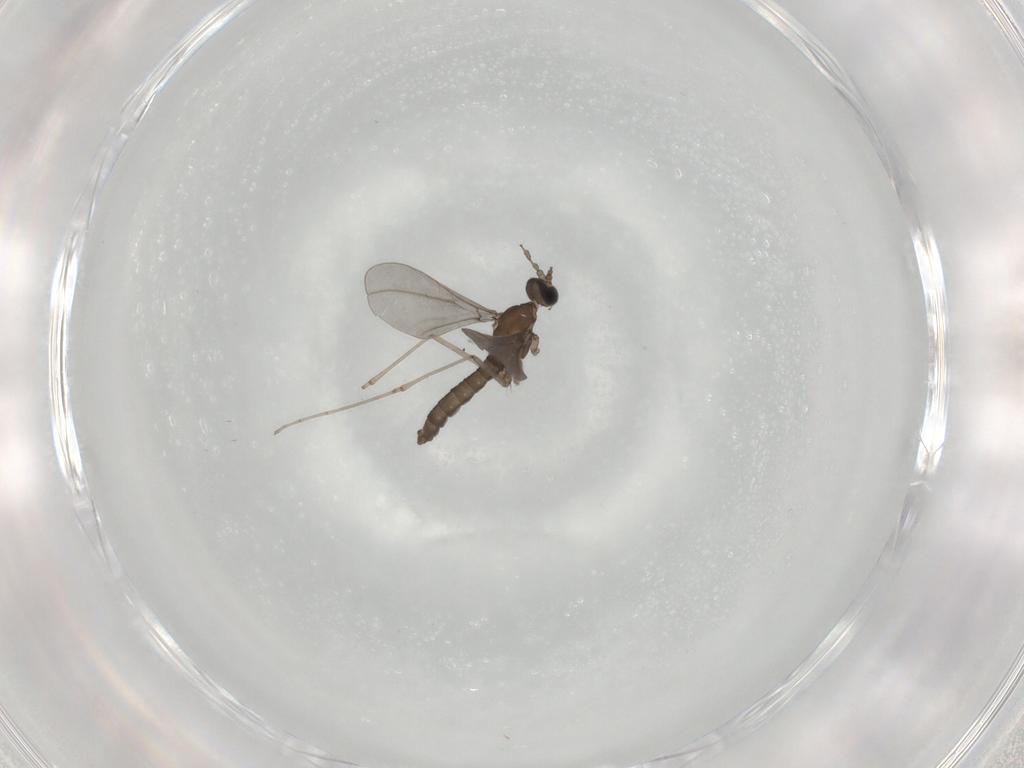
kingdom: Animalia
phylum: Arthropoda
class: Insecta
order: Diptera
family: Cecidomyiidae
